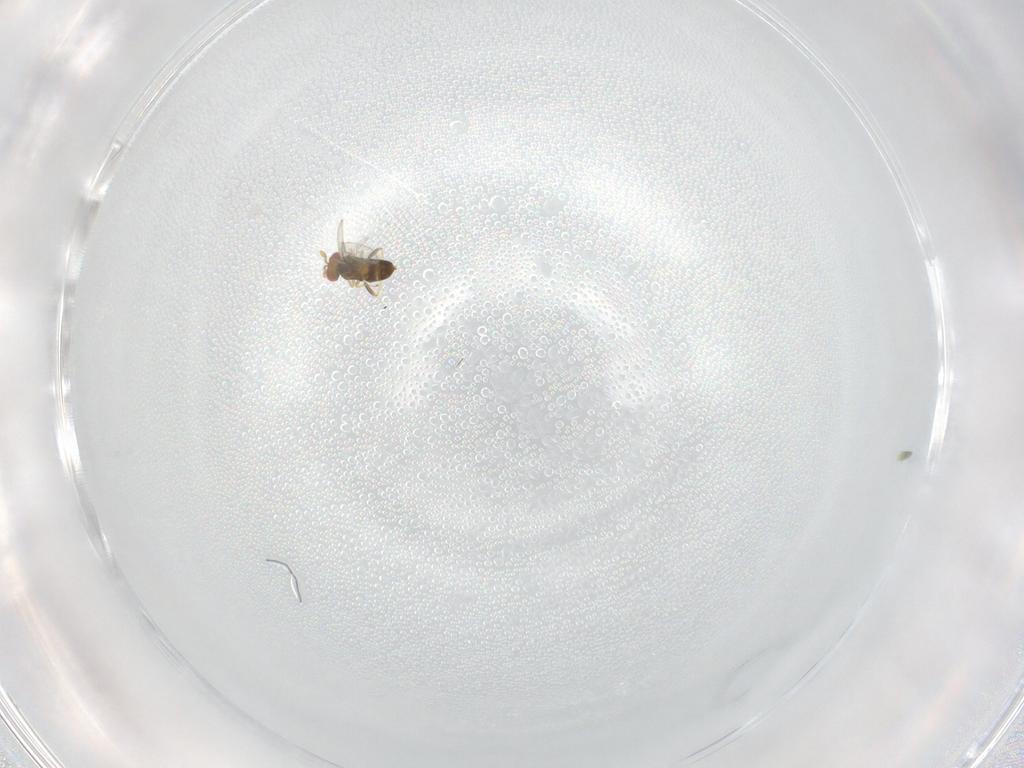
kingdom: Animalia
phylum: Arthropoda
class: Insecta
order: Hymenoptera
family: Trichogrammatidae
